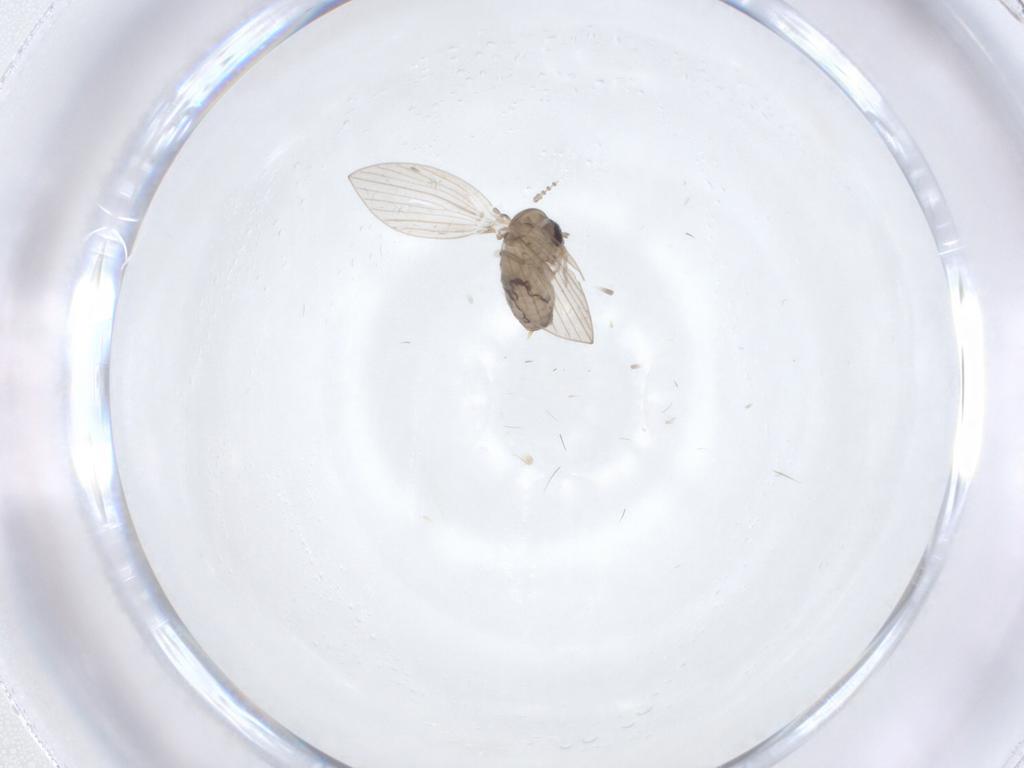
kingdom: Animalia
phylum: Arthropoda
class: Insecta
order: Diptera
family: Psychodidae
